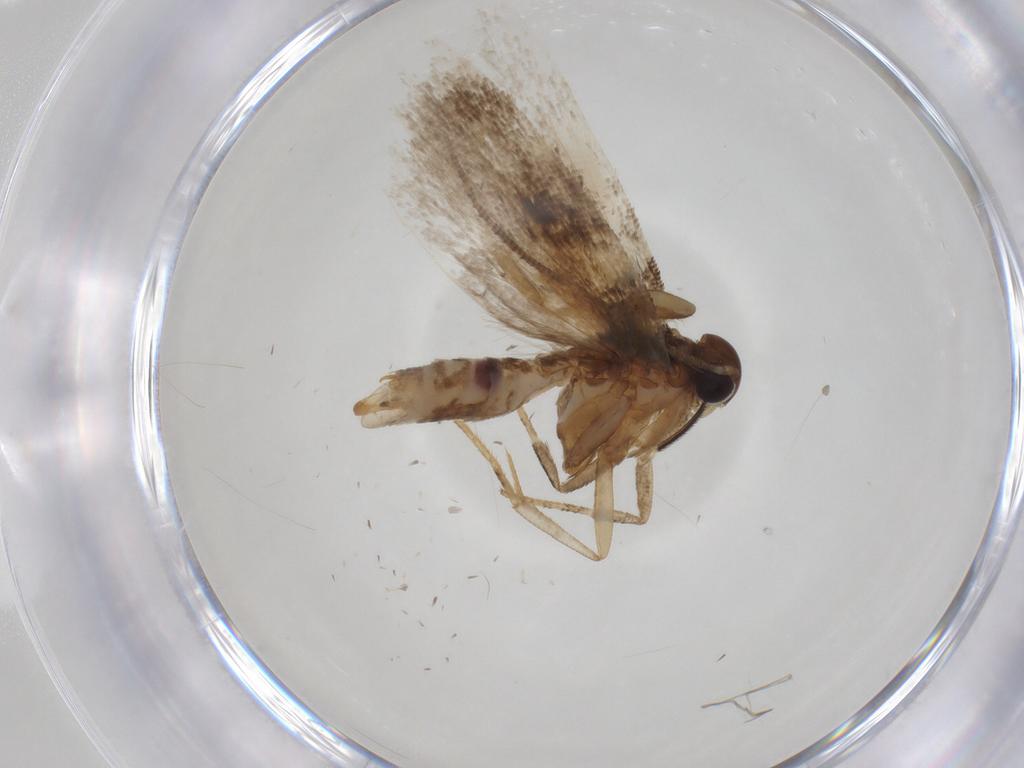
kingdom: Animalia
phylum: Arthropoda
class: Insecta
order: Lepidoptera
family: Gelechiidae
